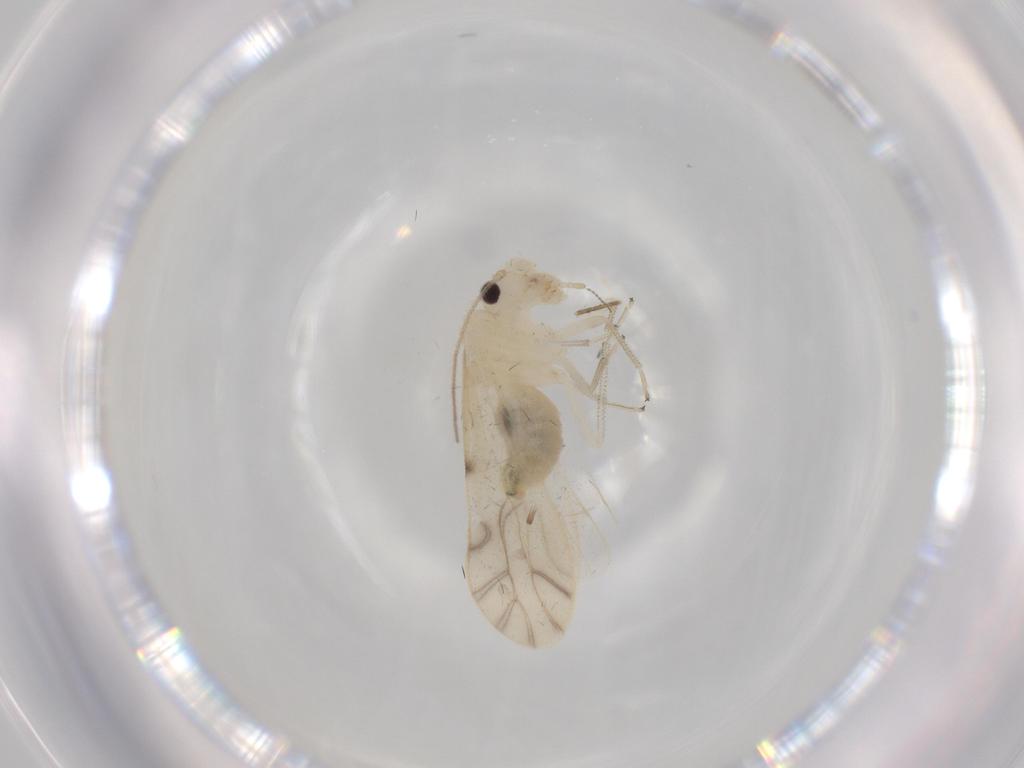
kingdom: Animalia
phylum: Arthropoda
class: Insecta
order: Psocodea
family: Caeciliusidae
